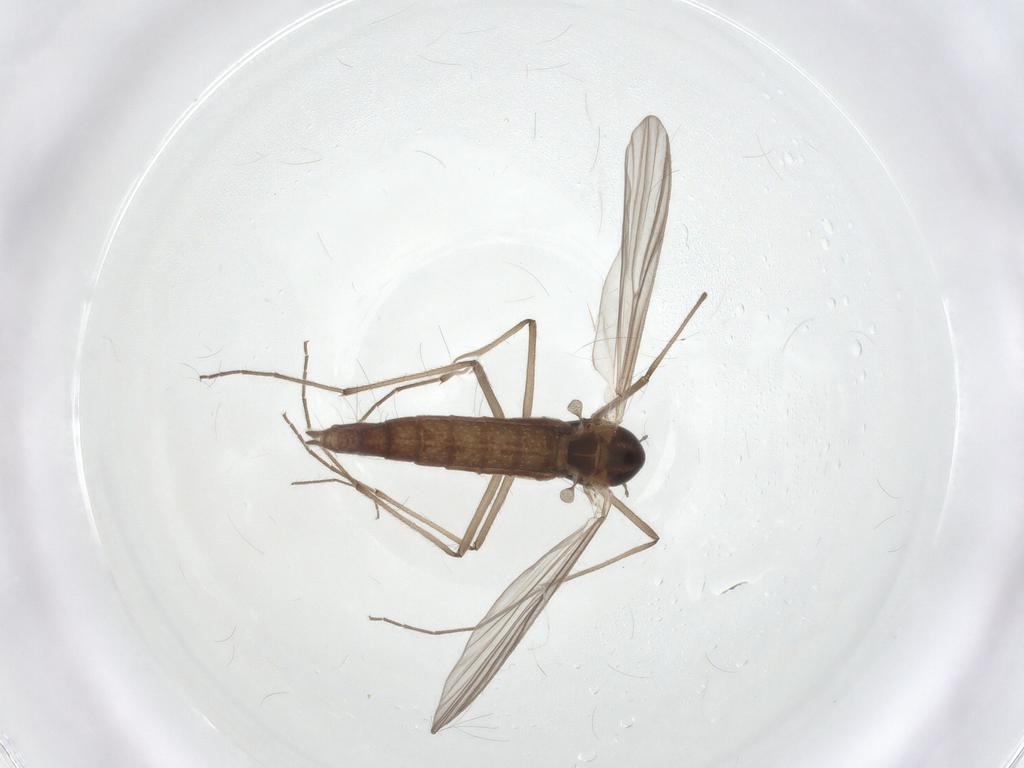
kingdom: Animalia
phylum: Arthropoda
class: Insecta
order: Diptera
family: Chironomidae
